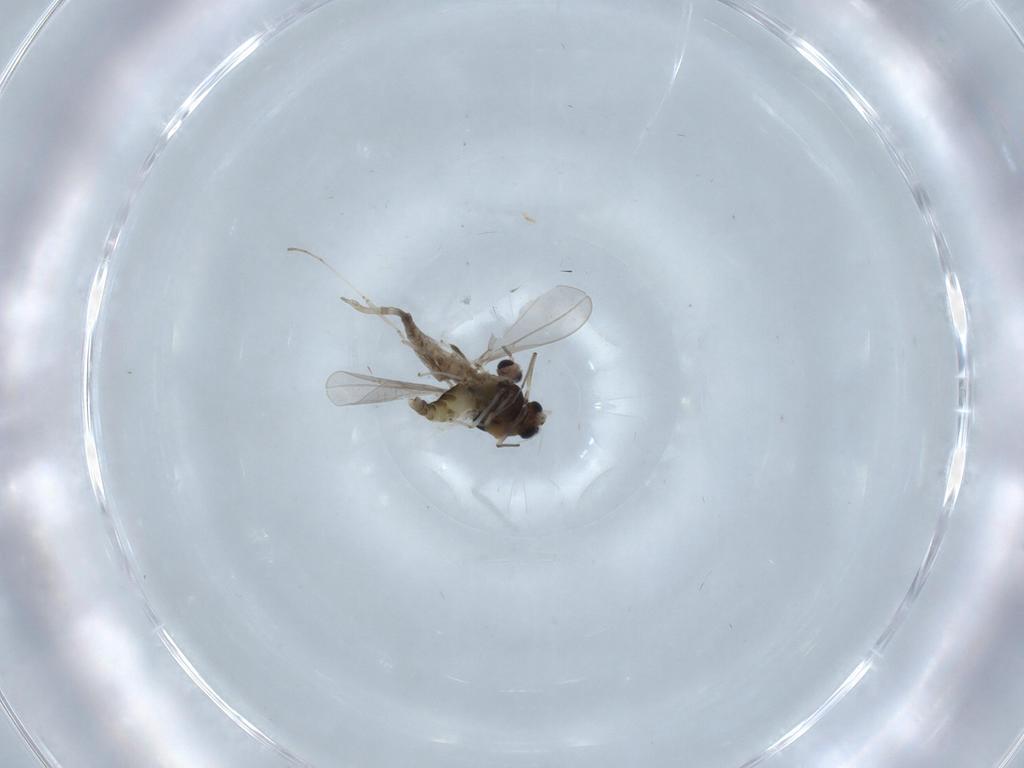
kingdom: Animalia
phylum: Arthropoda
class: Insecta
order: Diptera
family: Chironomidae
